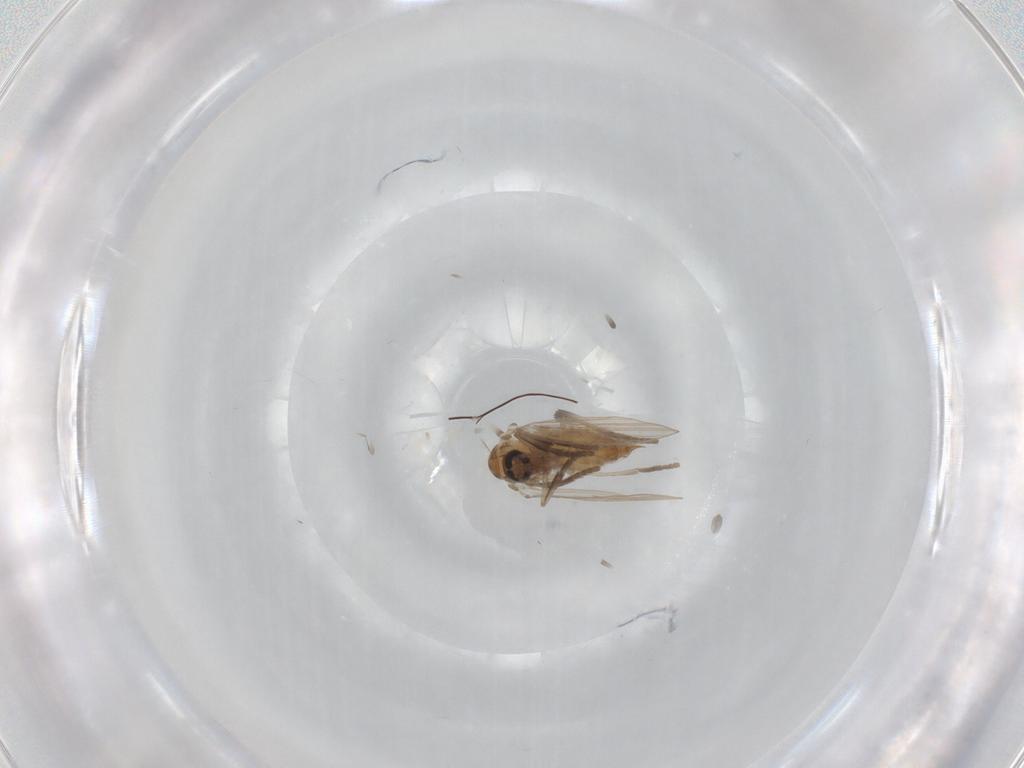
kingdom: Animalia
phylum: Arthropoda
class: Insecta
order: Diptera
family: Psychodidae
